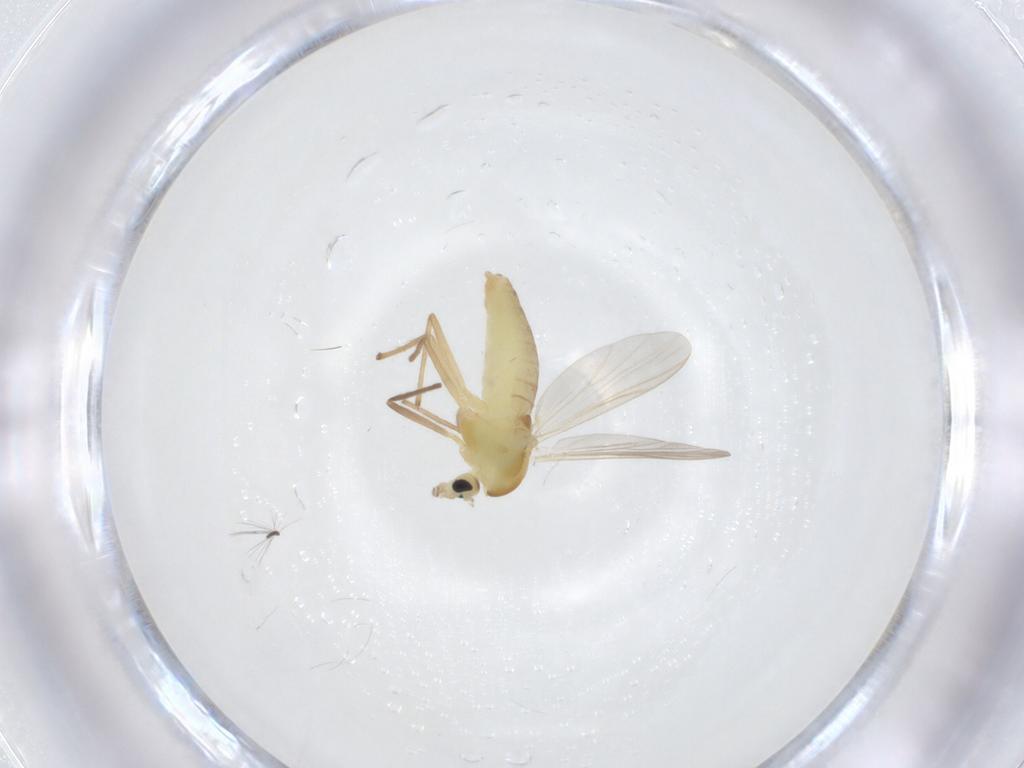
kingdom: Animalia
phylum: Arthropoda
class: Insecta
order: Diptera
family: Chironomidae
